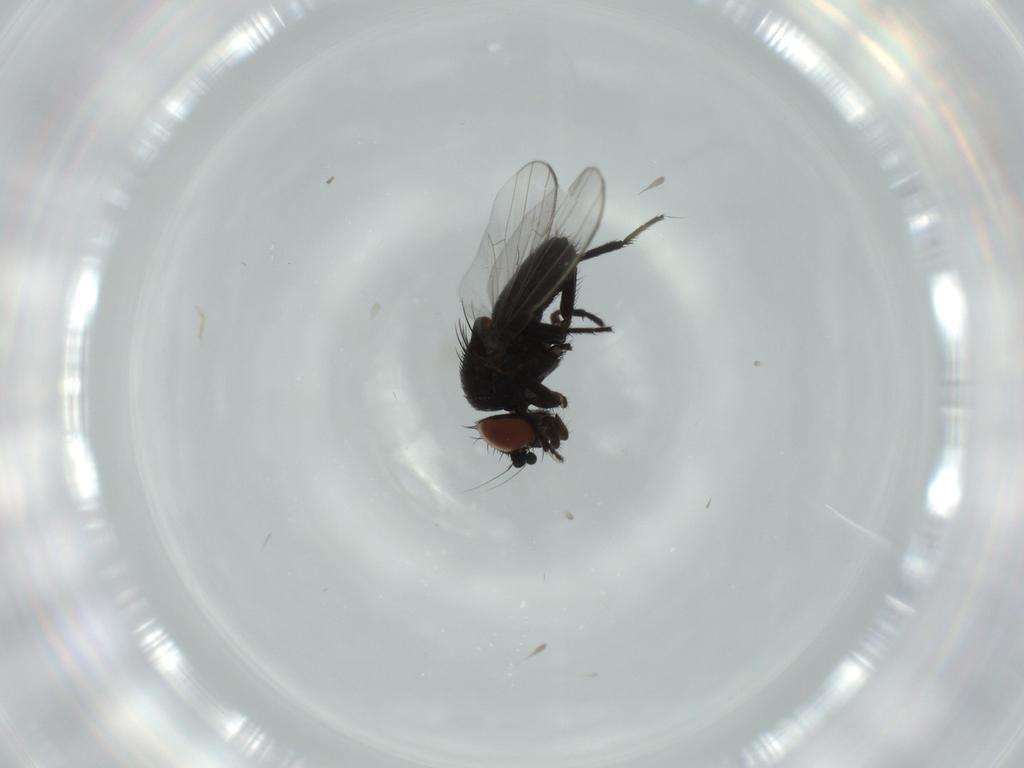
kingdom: Animalia
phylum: Arthropoda
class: Insecta
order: Diptera
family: Milichiidae
